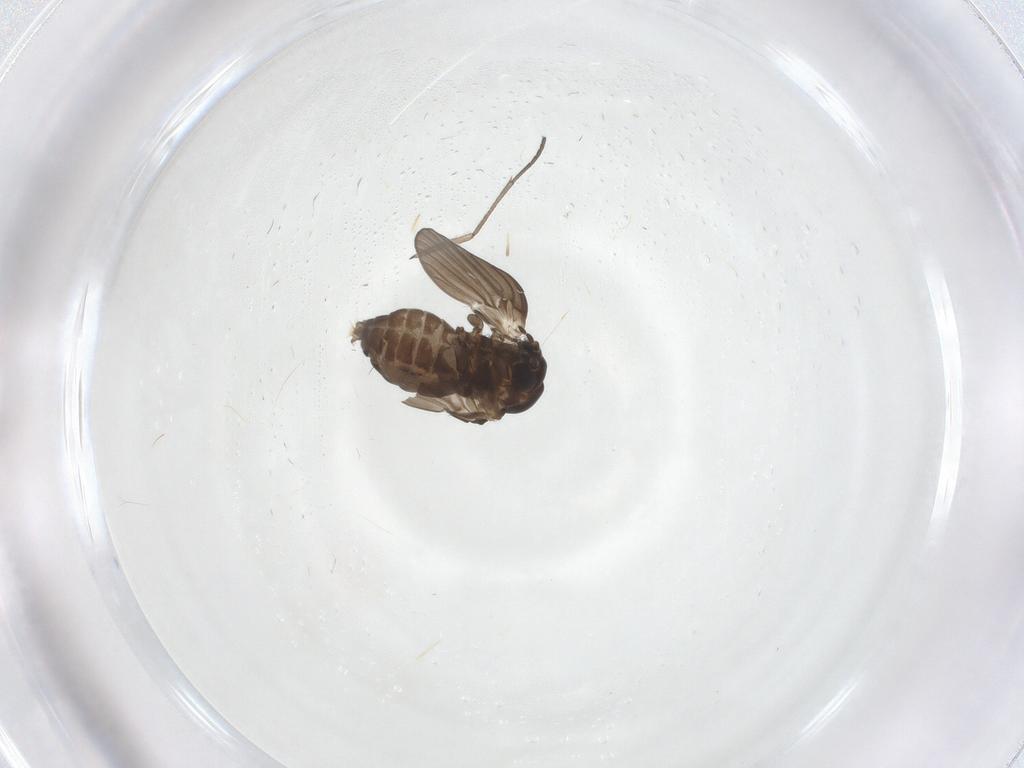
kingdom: Animalia
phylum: Arthropoda
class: Insecta
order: Diptera
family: Psychodidae
